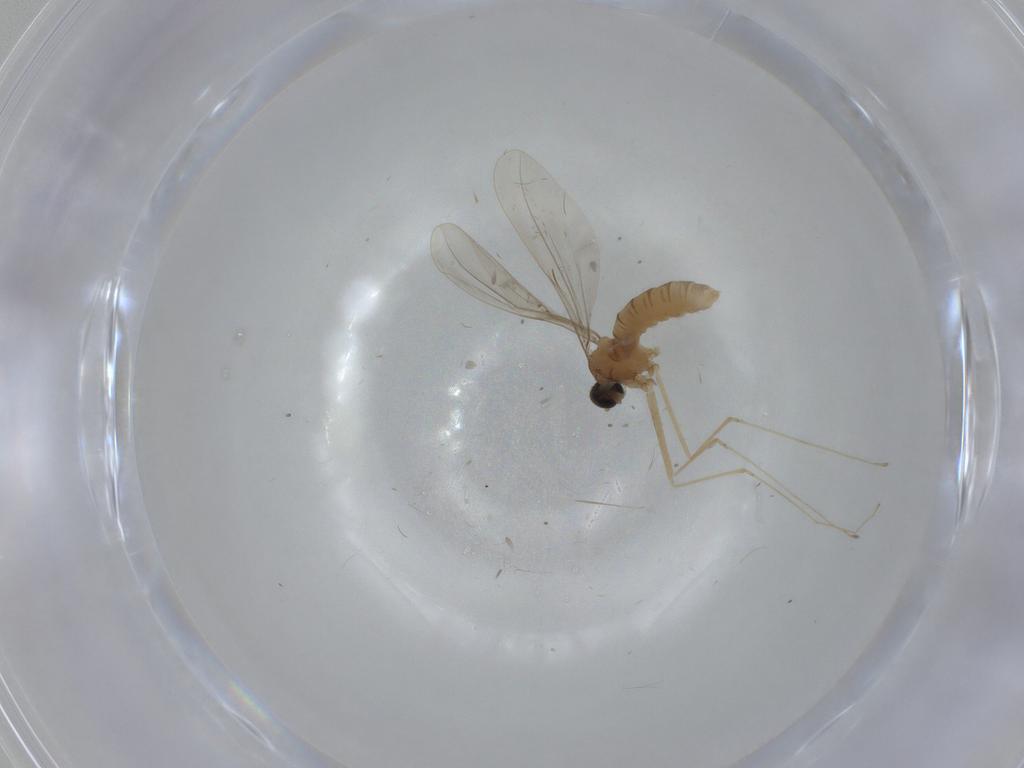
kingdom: Animalia
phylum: Arthropoda
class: Insecta
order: Diptera
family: Cecidomyiidae
